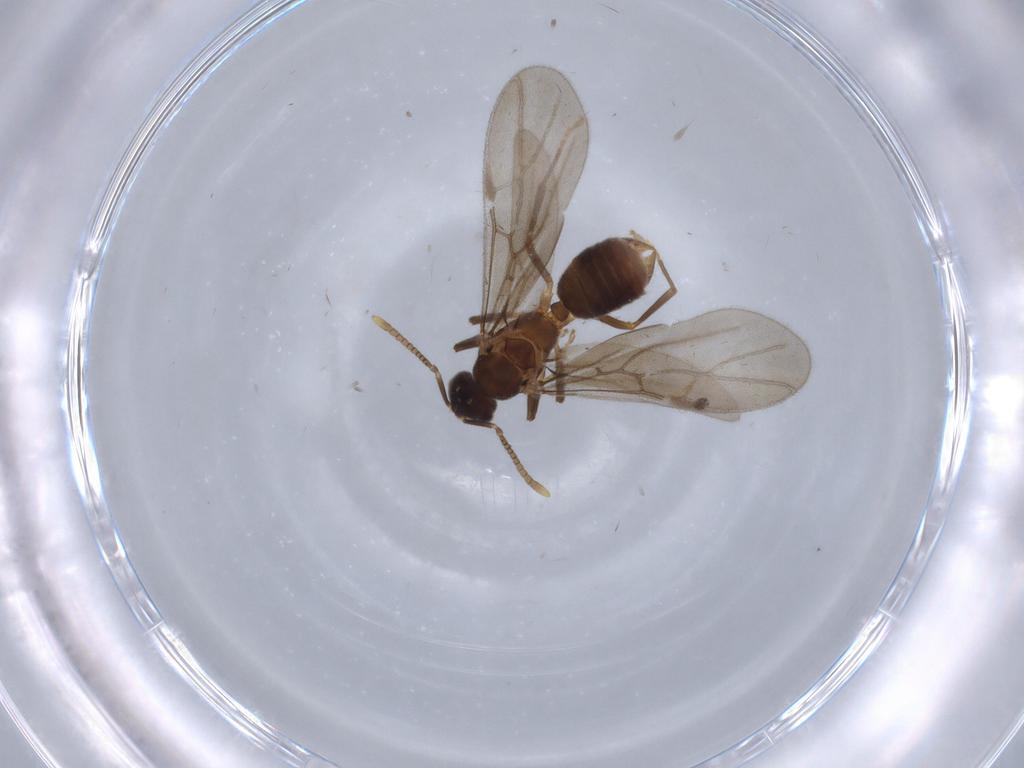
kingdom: Animalia
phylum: Arthropoda
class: Insecta
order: Hymenoptera
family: Formicidae
